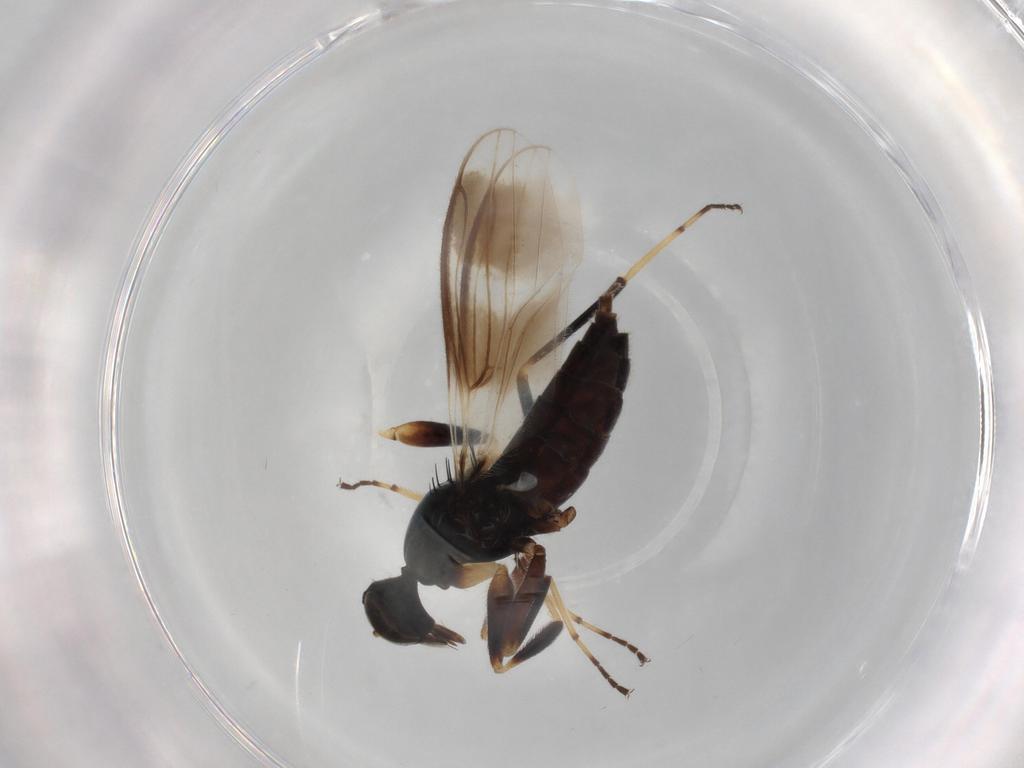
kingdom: Animalia
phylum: Arthropoda
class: Insecta
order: Diptera
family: Hybotidae
